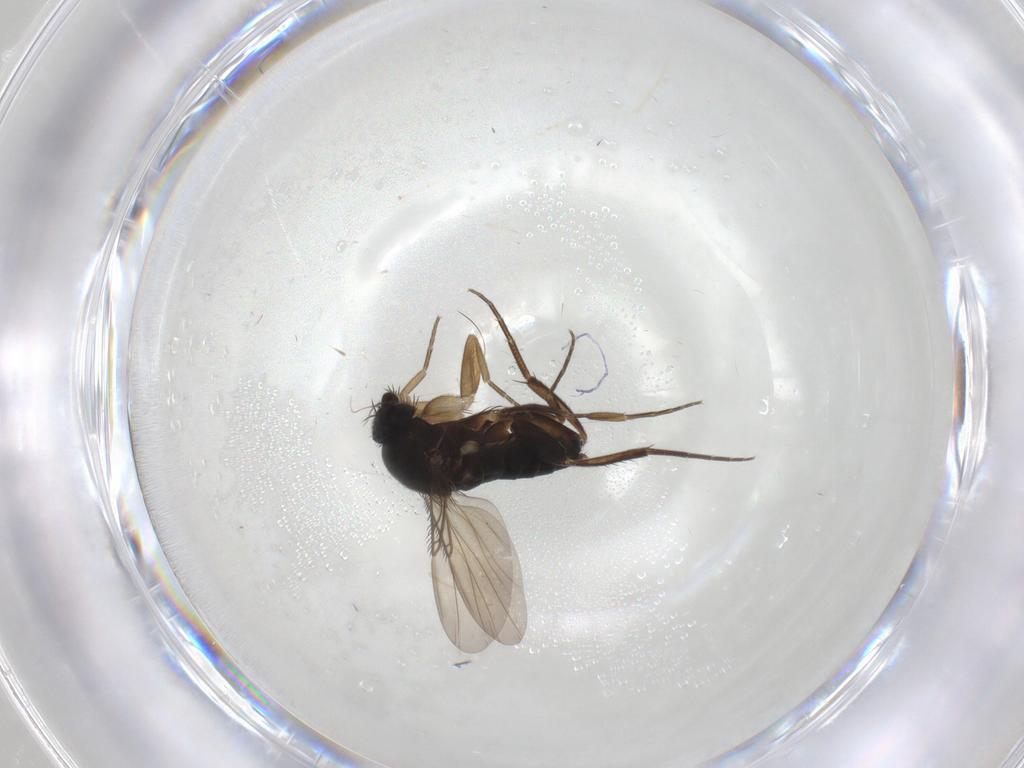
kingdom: Animalia
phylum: Arthropoda
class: Insecta
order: Diptera
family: Phoridae
